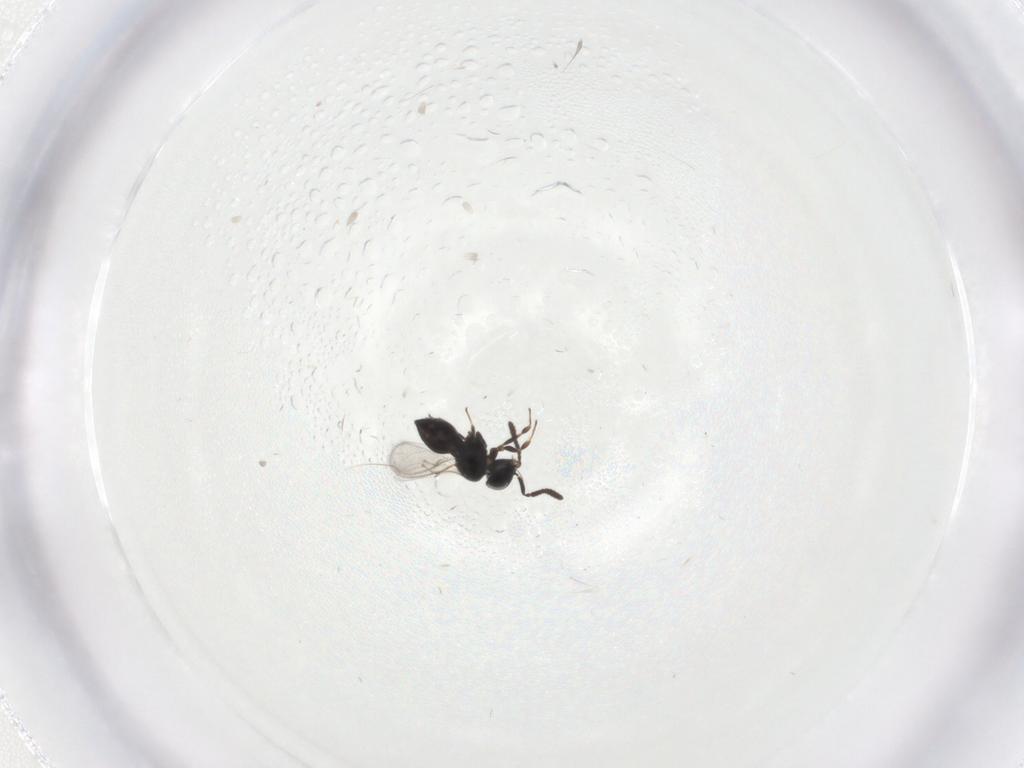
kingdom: Animalia
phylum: Arthropoda
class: Insecta
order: Hymenoptera
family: Scelionidae
